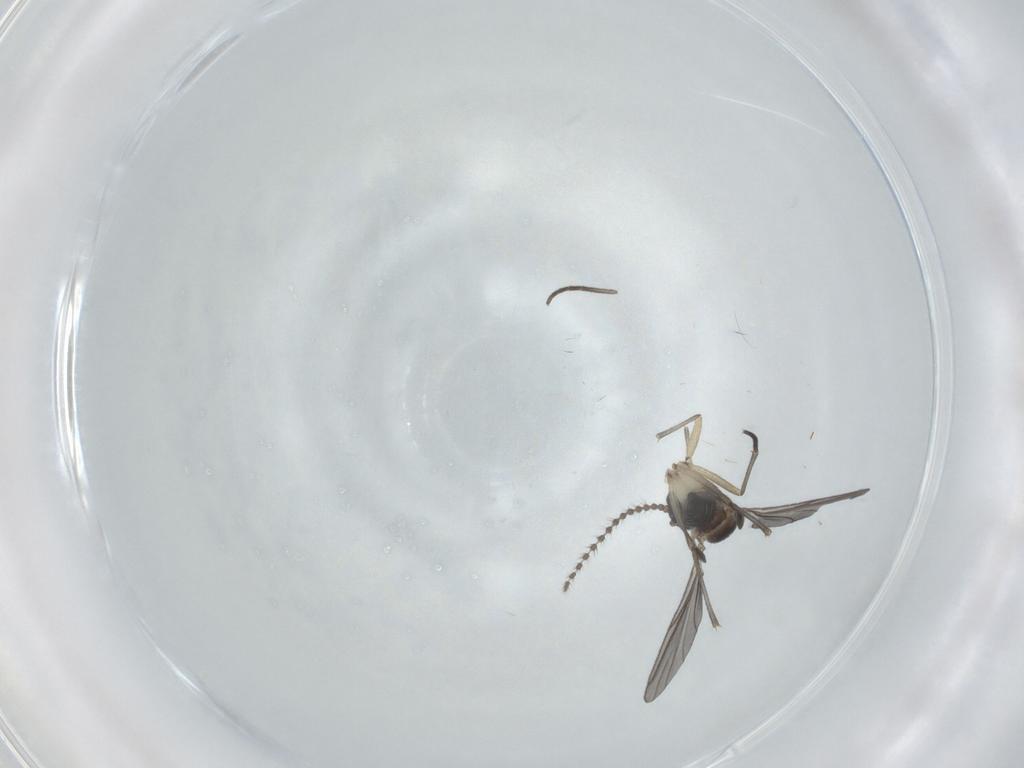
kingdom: Animalia
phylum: Arthropoda
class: Insecta
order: Diptera
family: Sciaridae
